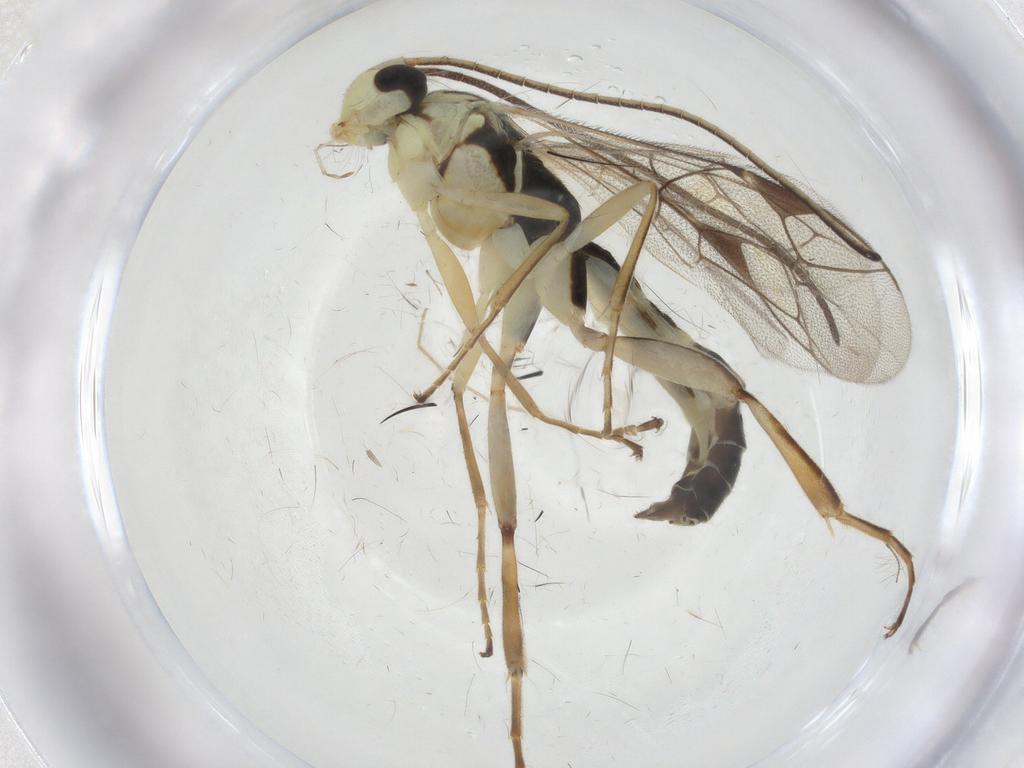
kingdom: Animalia
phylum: Arthropoda
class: Insecta
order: Hymenoptera
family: Ichneumonidae
